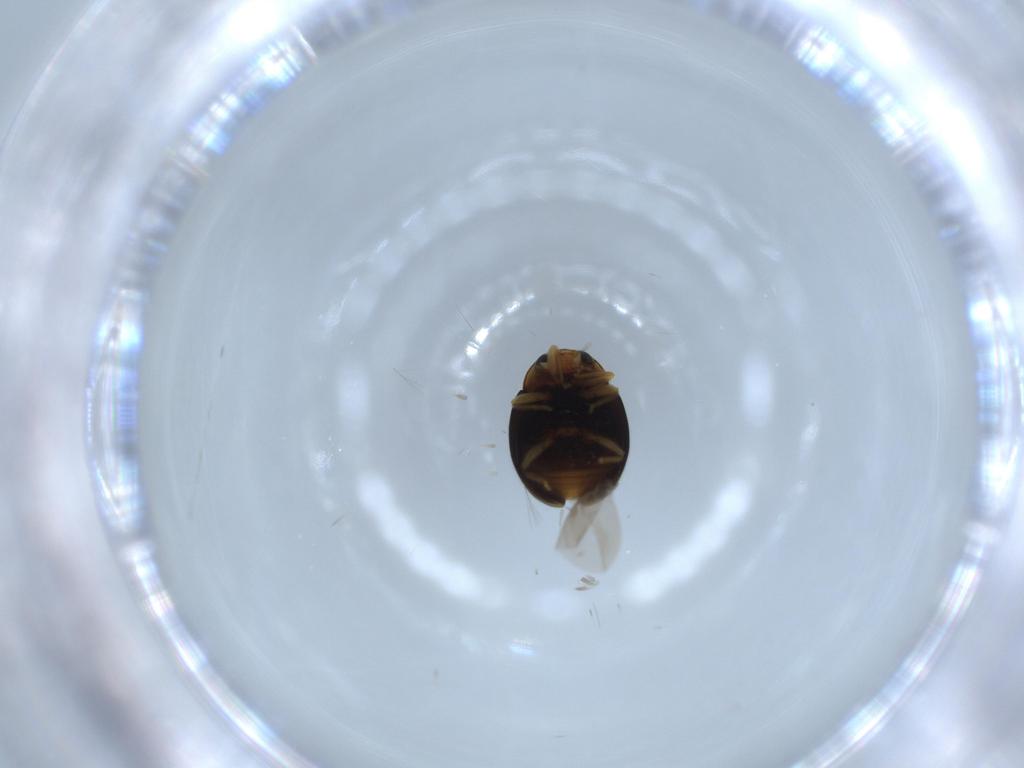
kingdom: Animalia
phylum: Arthropoda
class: Insecta
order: Coleoptera
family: Coccinellidae
